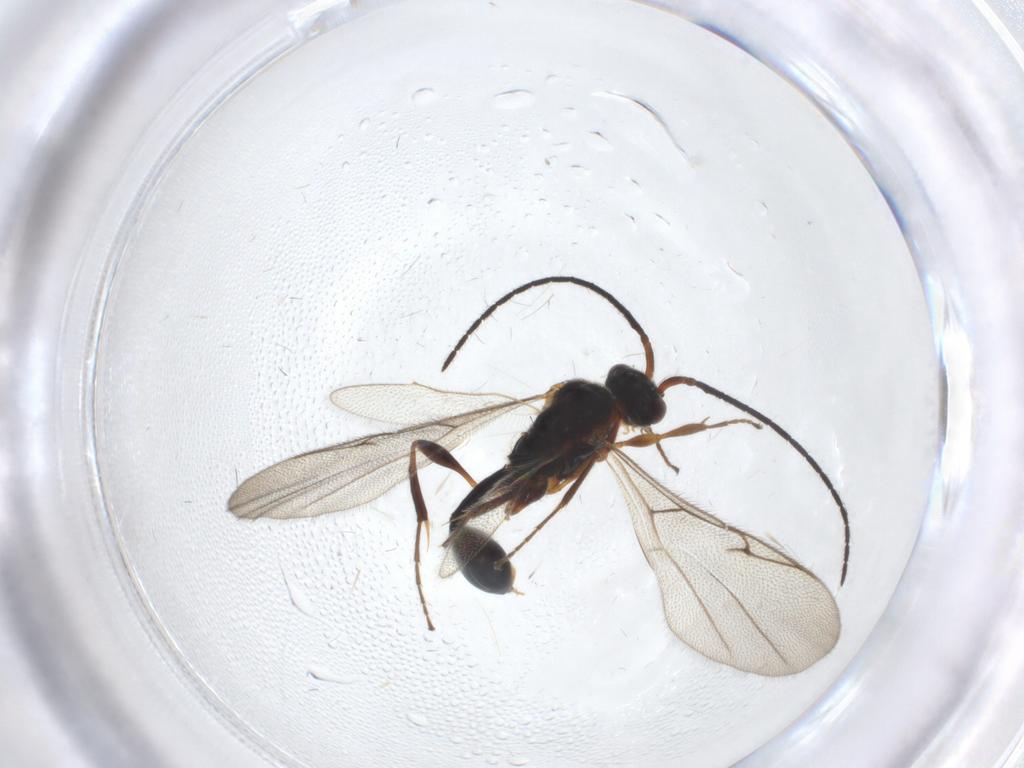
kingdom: Animalia
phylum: Arthropoda
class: Insecta
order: Hymenoptera
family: Diapriidae
